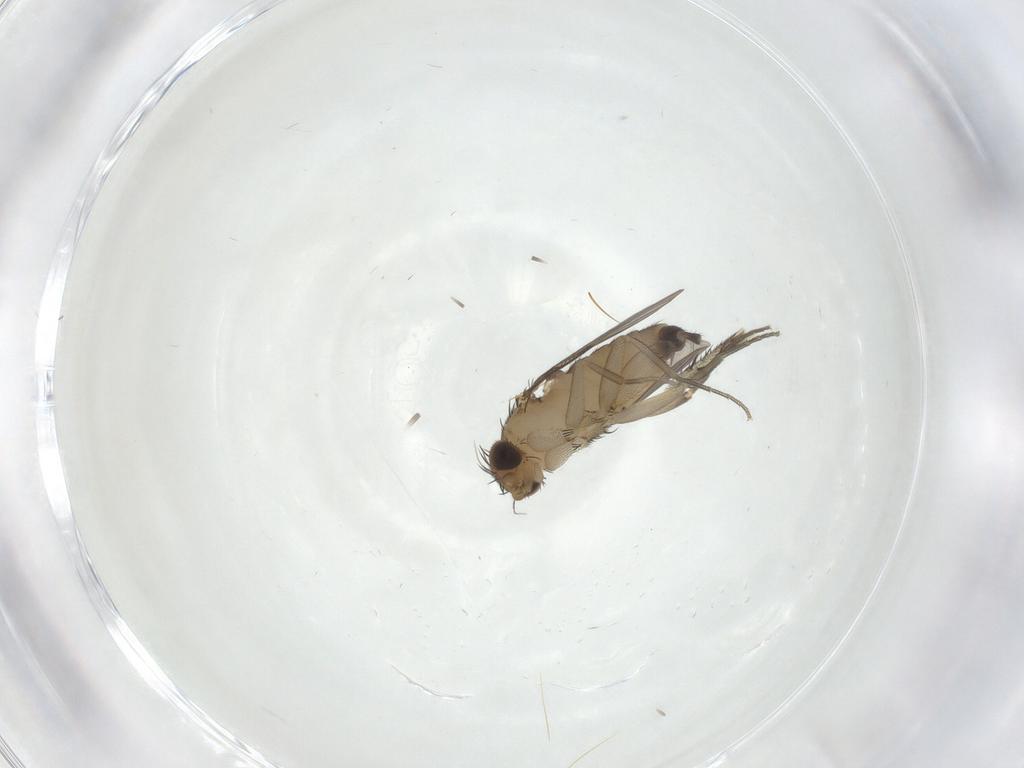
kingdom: Animalia
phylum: Arthropoda
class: Insecta
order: Diptera
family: Phoridae
